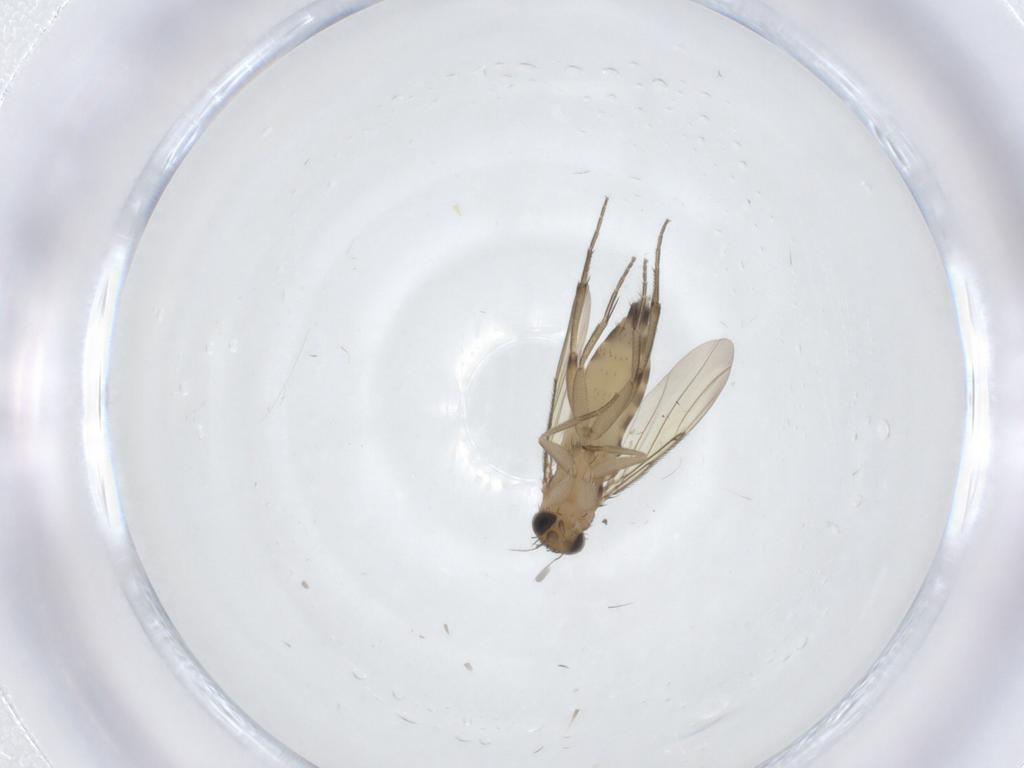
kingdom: Animalia
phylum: Arthropoda
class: Insecta
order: Diptera
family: Phoridae
